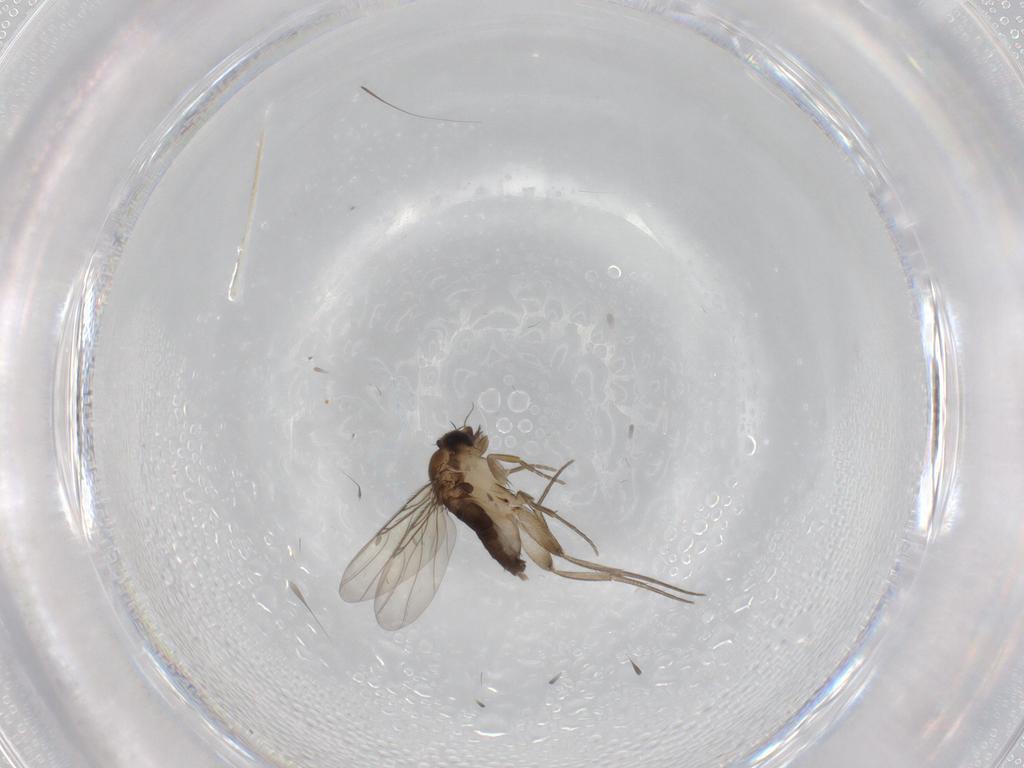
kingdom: Animalia
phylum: Arthropoda
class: Insecta
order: Diptera
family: Phoridae
